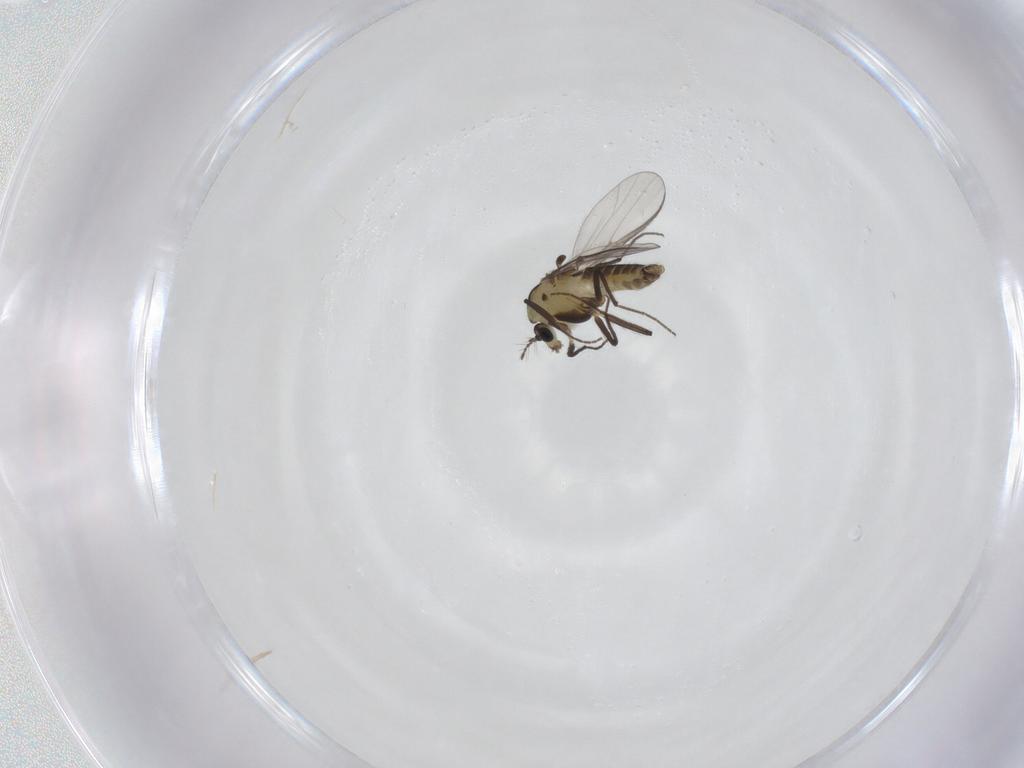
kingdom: Animalia
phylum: Arthropoda
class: Insecta
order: Diptera
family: Chironomidae
